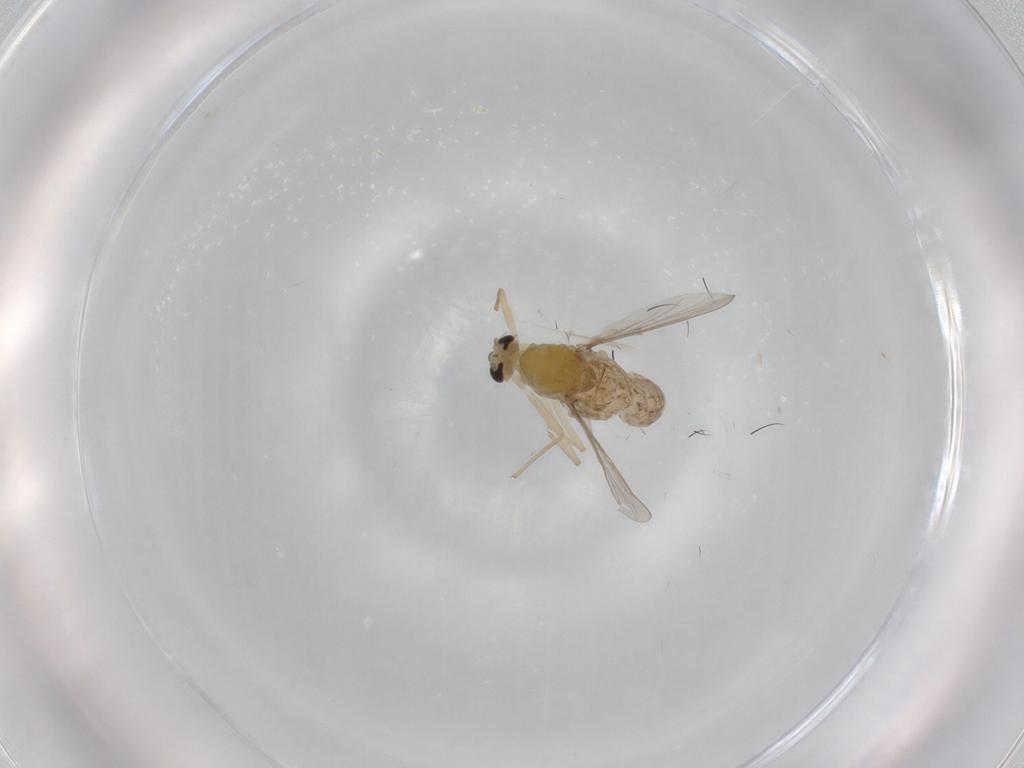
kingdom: Animalia
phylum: Arthropoda
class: Insecta
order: Diptera
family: Chironomidae
